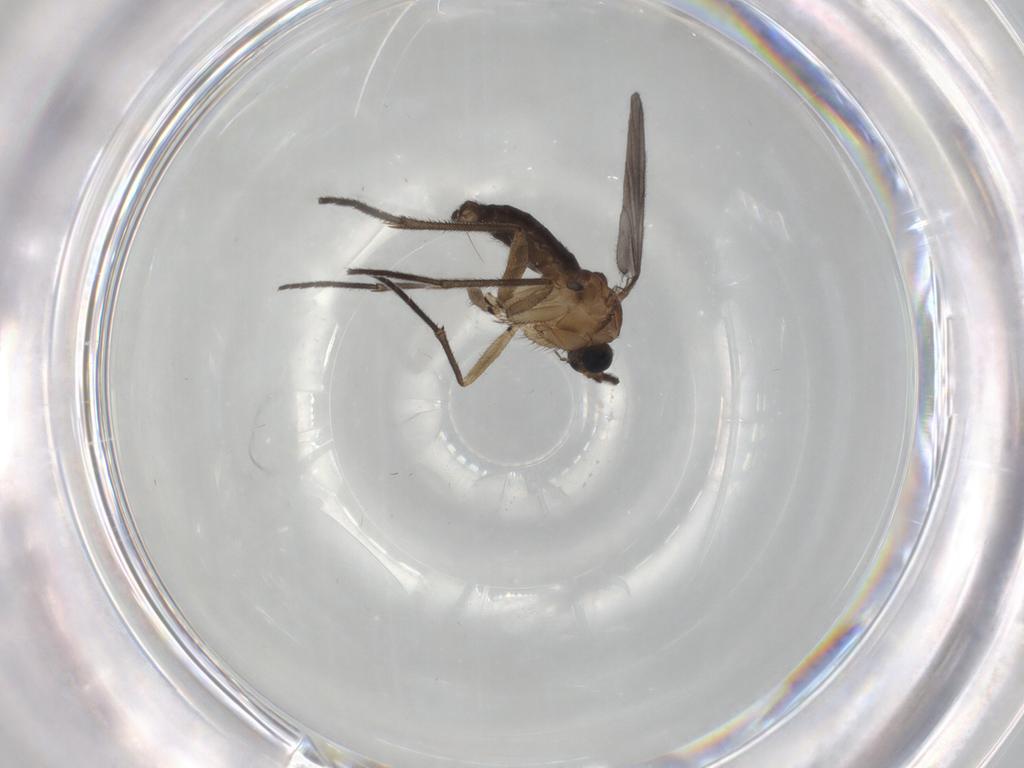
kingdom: Animalia
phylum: Arthropoda
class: Insecta
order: Diptera
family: Sciaridae
